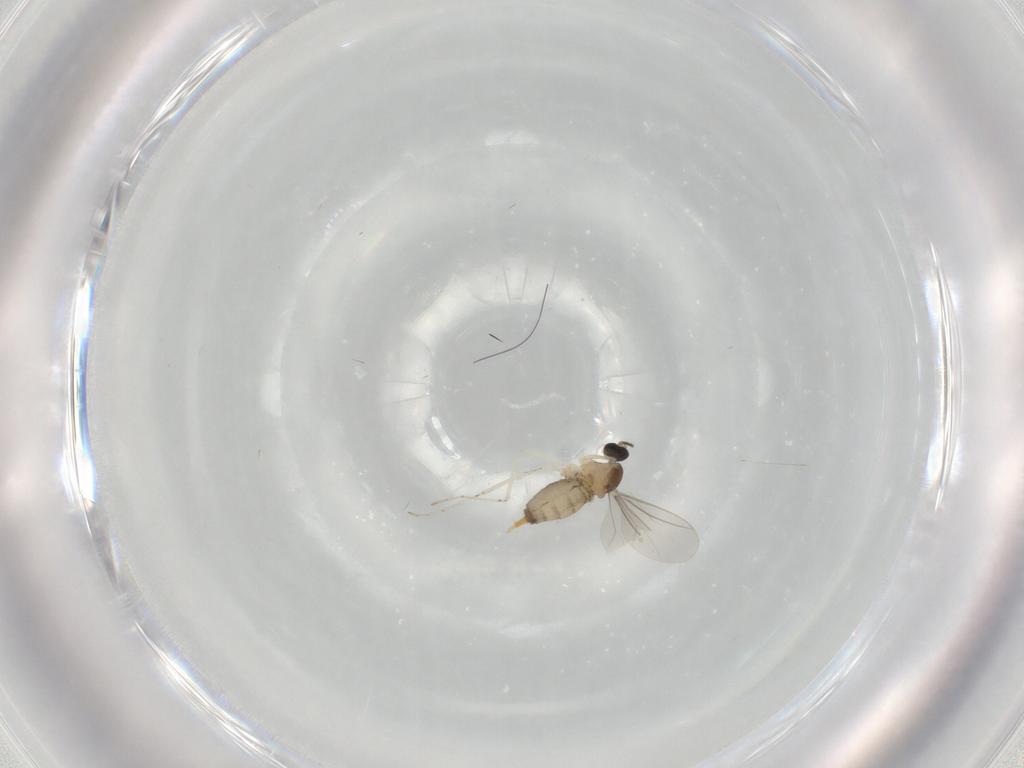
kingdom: Animalia
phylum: Arthropoda
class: Insecta
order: Diptera
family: Cecidomyiidae
